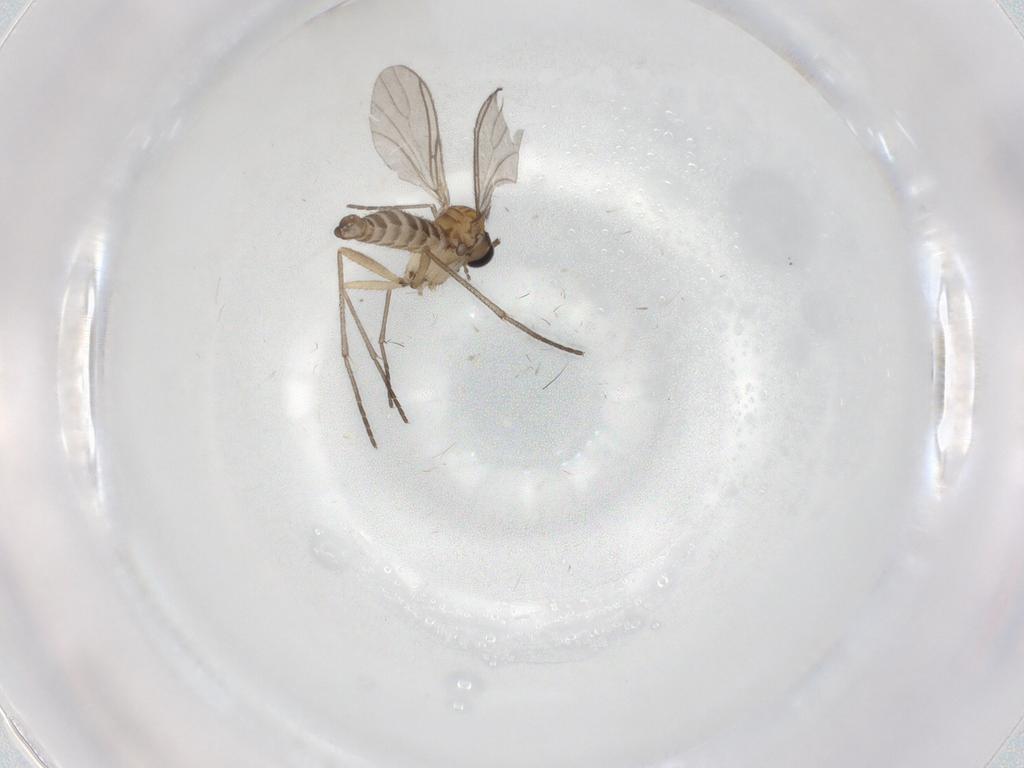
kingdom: Animalia
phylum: Arthropoda
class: Insecta
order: Diptera
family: Sciaridae
